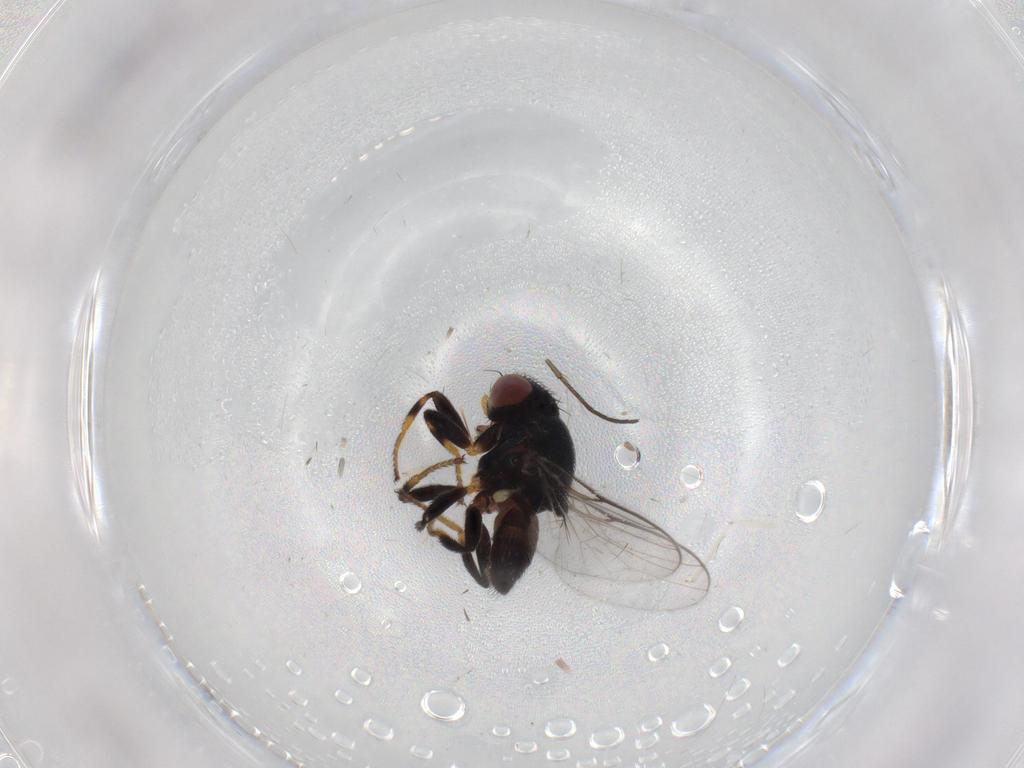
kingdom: Animalia
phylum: Arthropoda
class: Insecta
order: Diptera
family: Chloropidae
